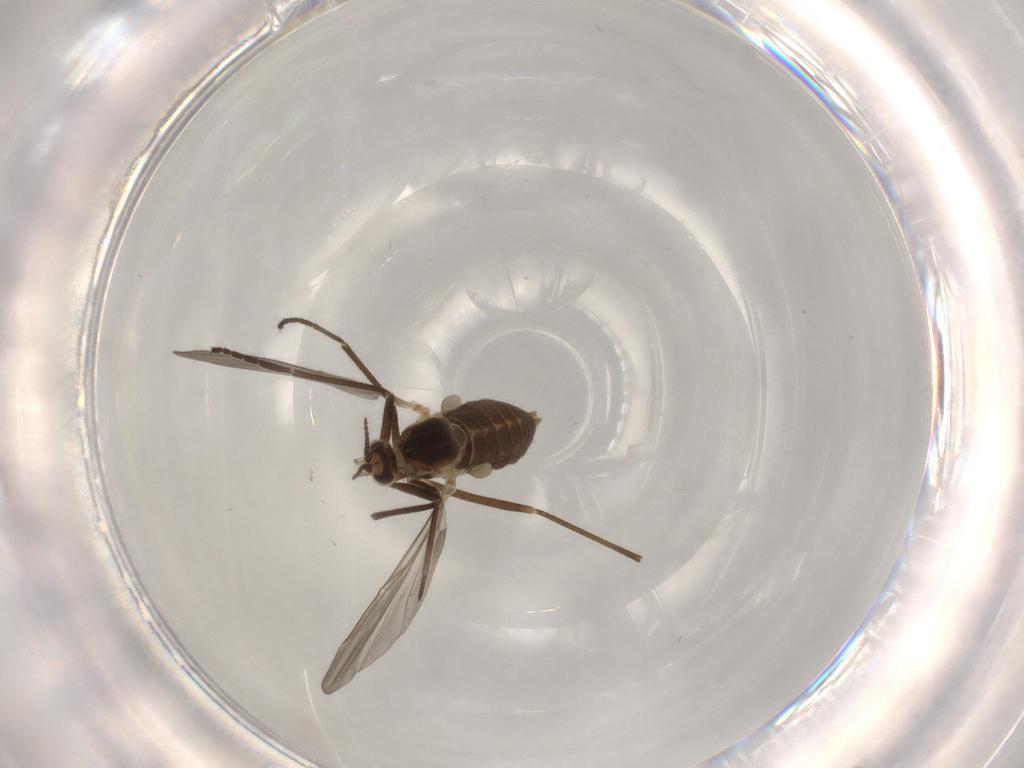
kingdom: Animalia
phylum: Arthropoda
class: Insecta
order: Diptera
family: Cecidomyiidae
